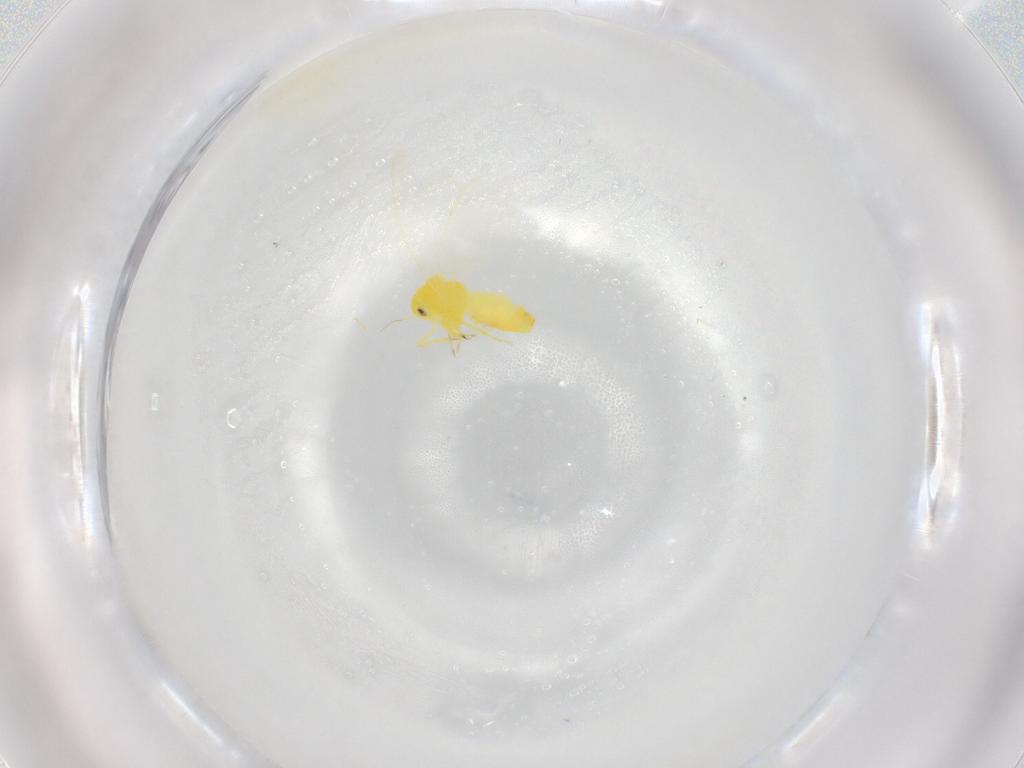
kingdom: Animalia
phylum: Arthropoda
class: Insecta
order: Hemiptera
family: Aleyrodidae
